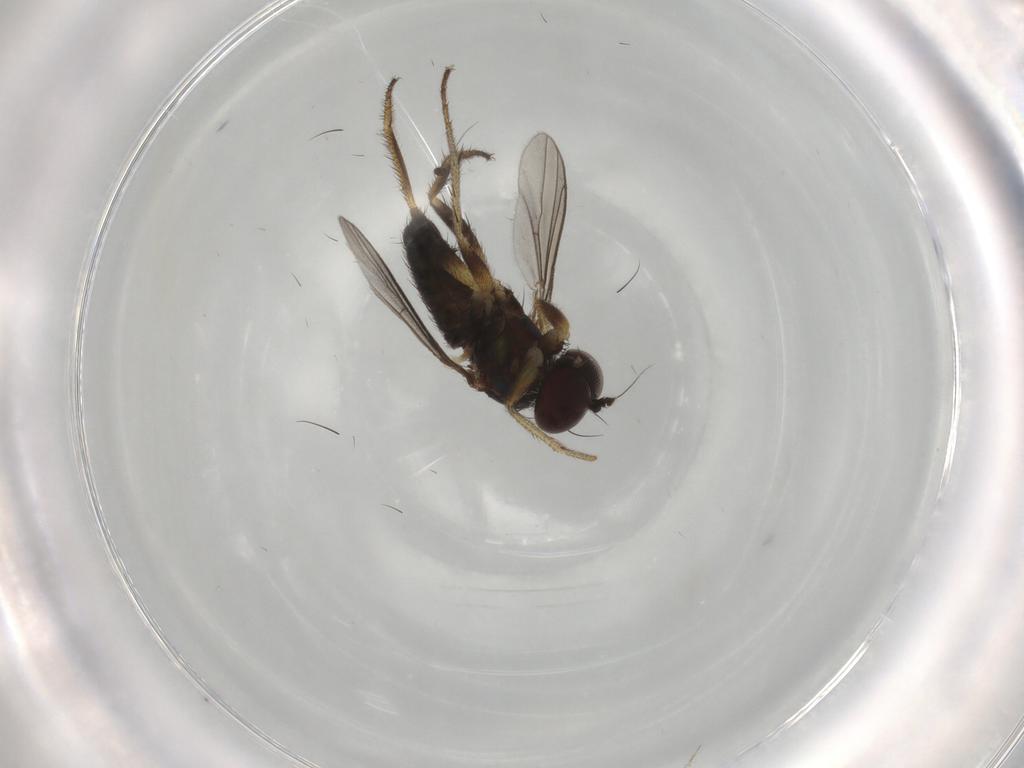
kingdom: Animalia
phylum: Arthropoda
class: Insecta
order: Diptera
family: Dolichopodidae
